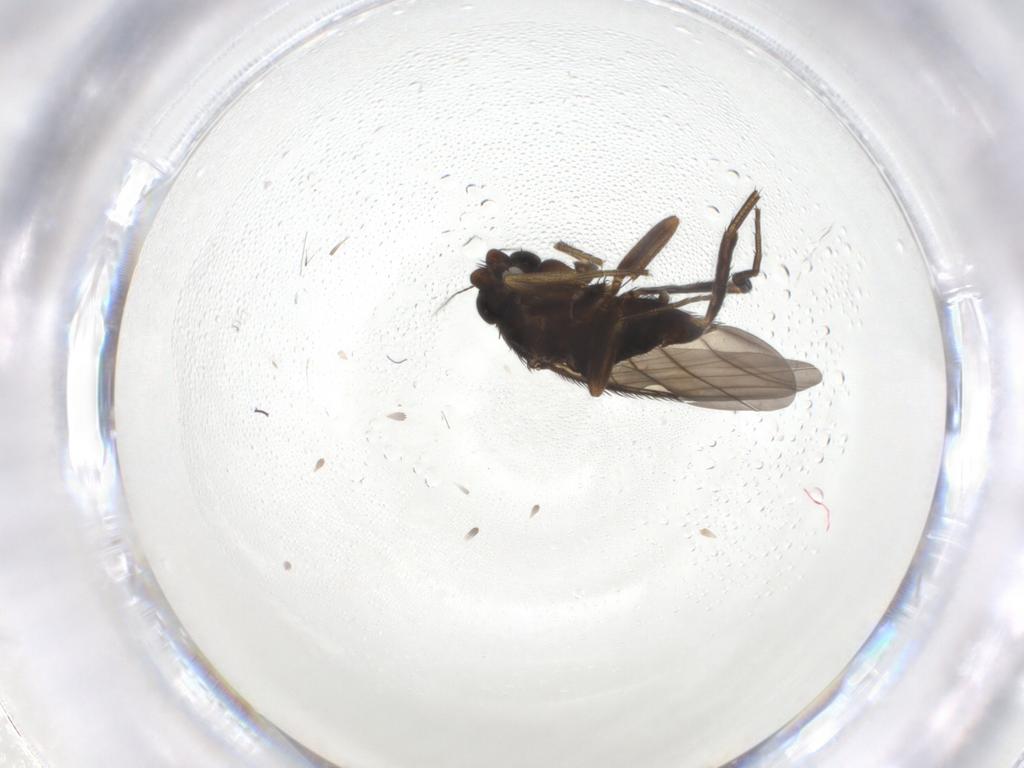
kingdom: Animalia
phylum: Arthropoda
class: Insecta
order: Diptera
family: Phoridae
